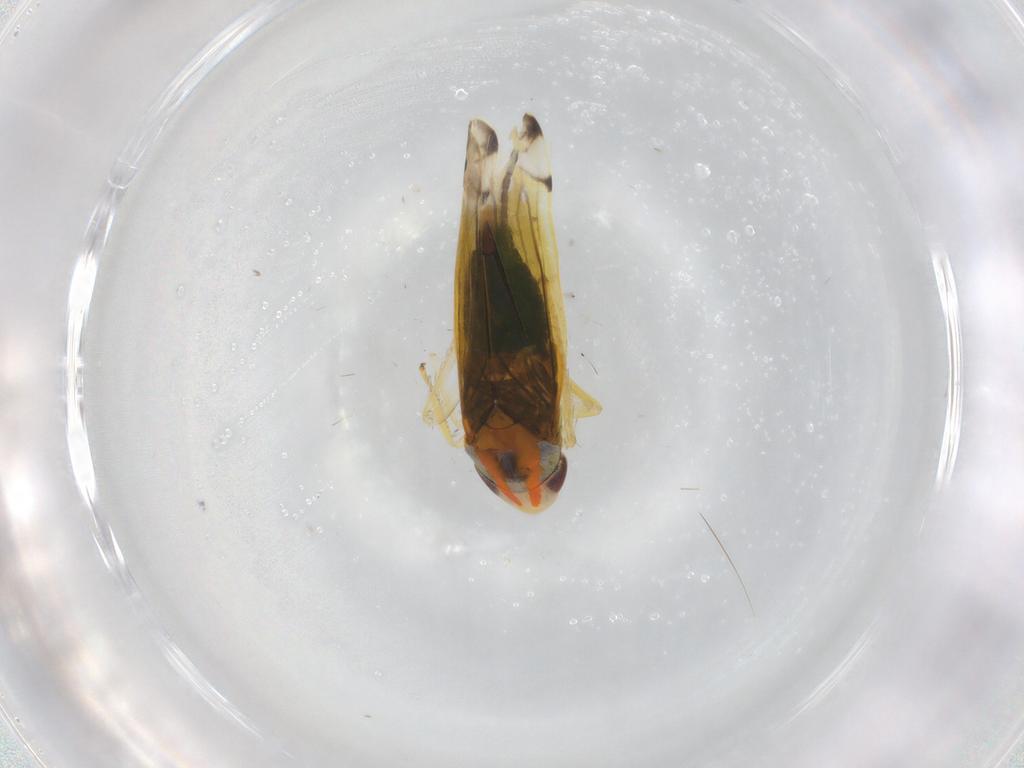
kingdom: Animalia
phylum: Arthropoda
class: Insecta
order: Hemiptera
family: Cicadellidae
